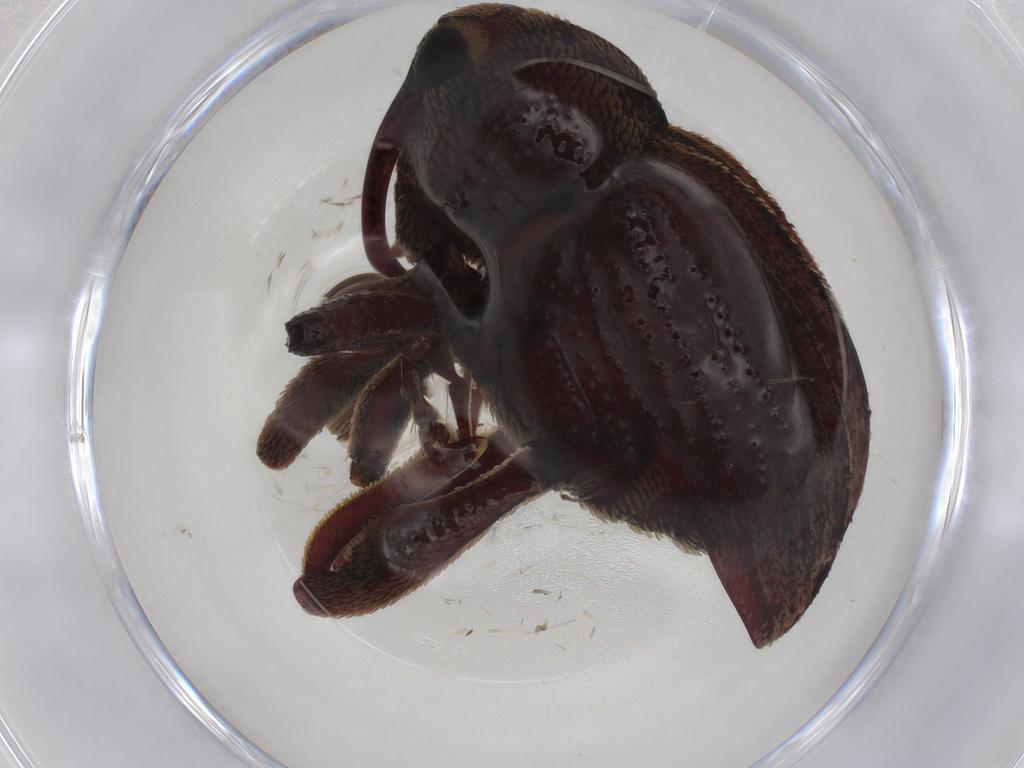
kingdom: Animalia
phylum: Arthropoda
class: Insecta
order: Coleoptera
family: Curculionidae
